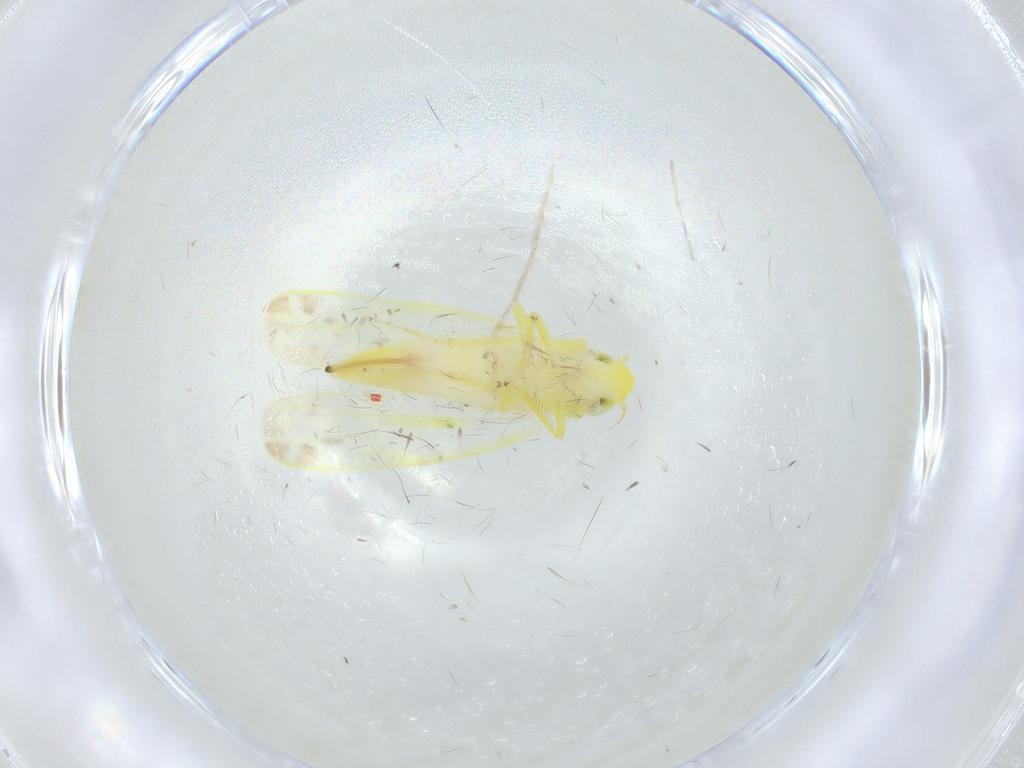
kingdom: Animalia
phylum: Arthropoda
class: Insecta
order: Hemiptera
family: Cicadellidae
